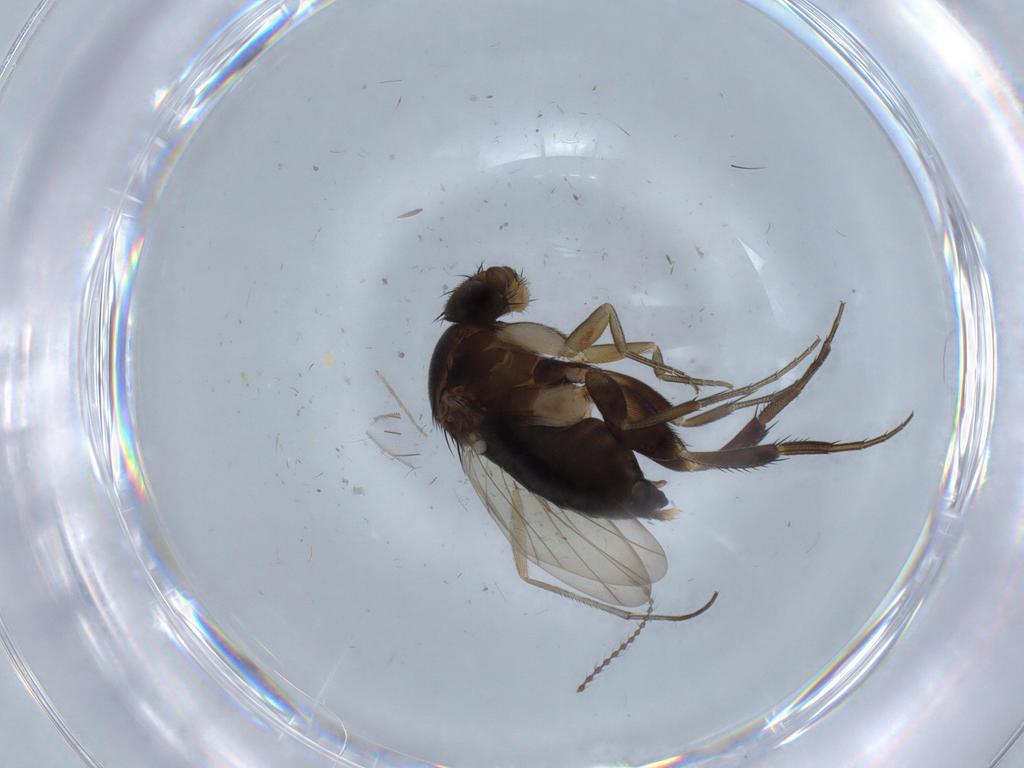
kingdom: Animalia
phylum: Arthropoda
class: Insecta
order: Diptera
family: Phoridae
